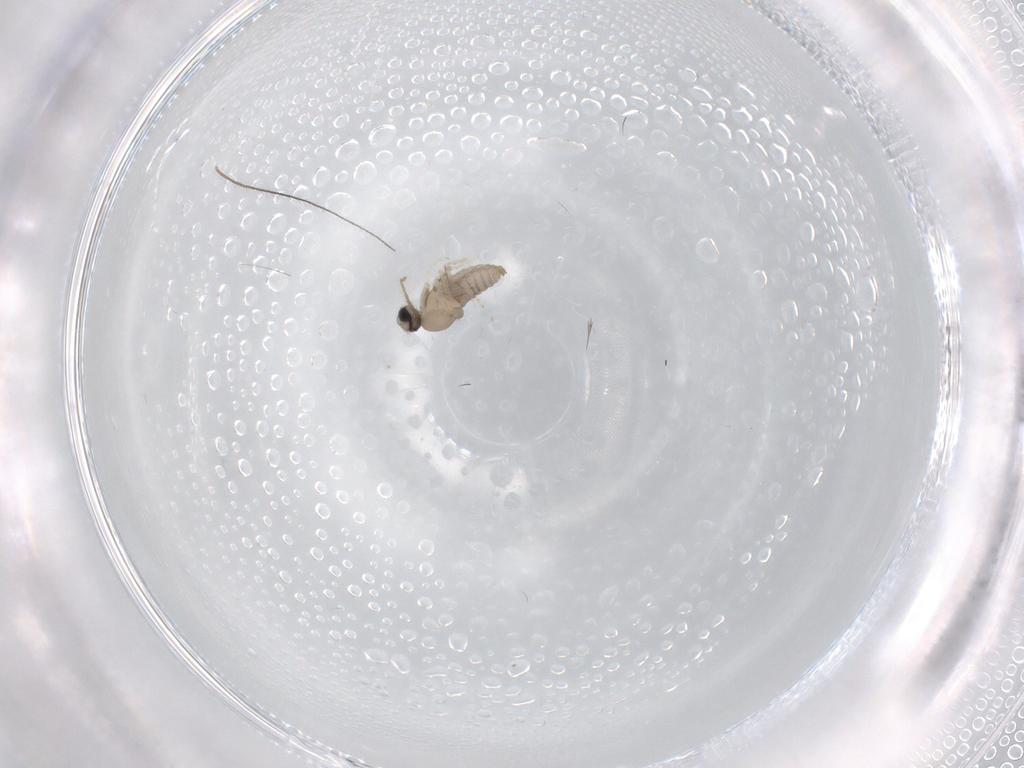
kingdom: Animalia
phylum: Arthropoda
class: Insecta
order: Diptera
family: Cecidomyiidae
